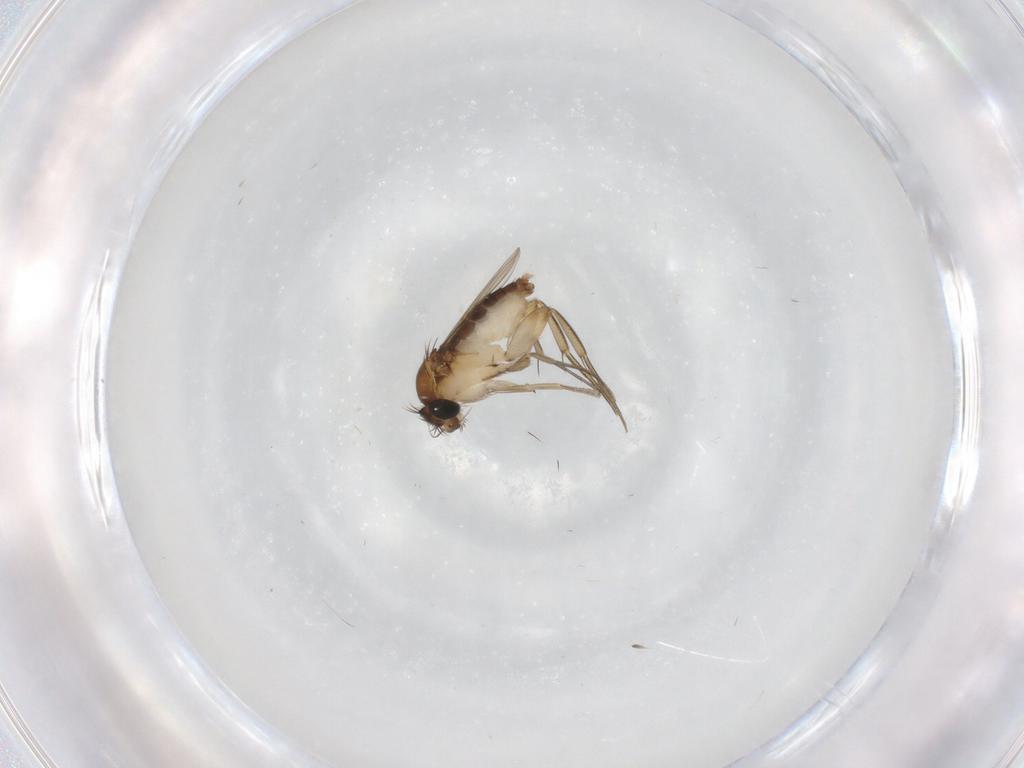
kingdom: Animalia
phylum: Arthropoda
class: Insecta
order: Diptera
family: Phoridae
